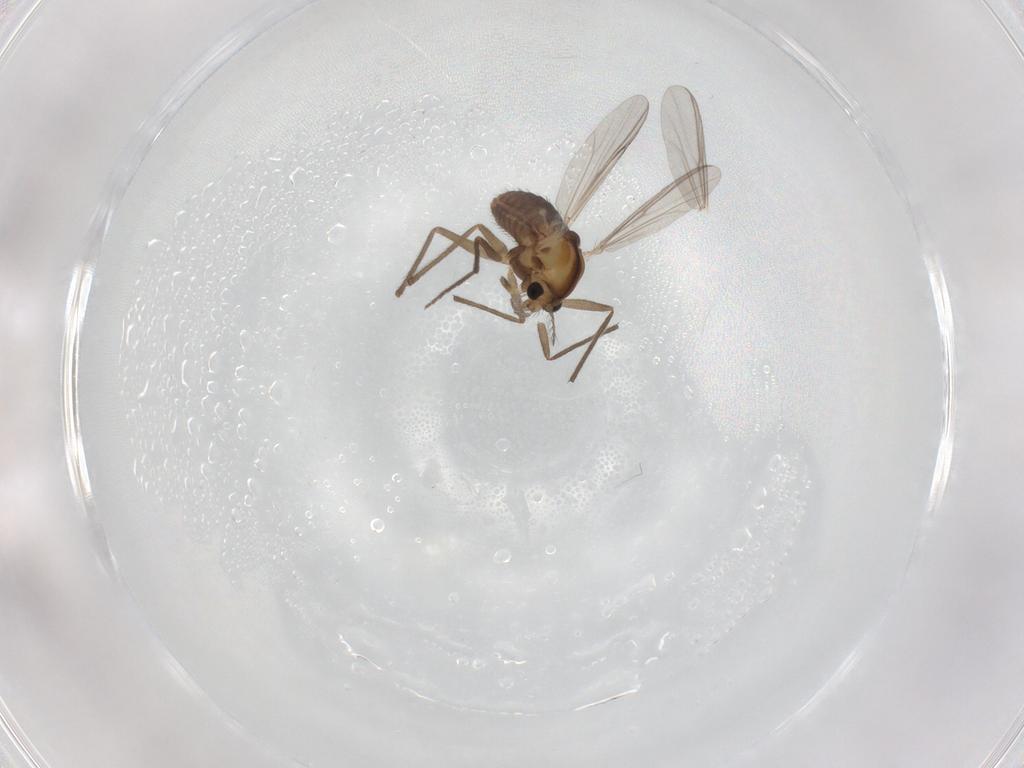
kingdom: Animalia
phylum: Arthropoda
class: Insecta
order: Diptera
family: Chironomidae
